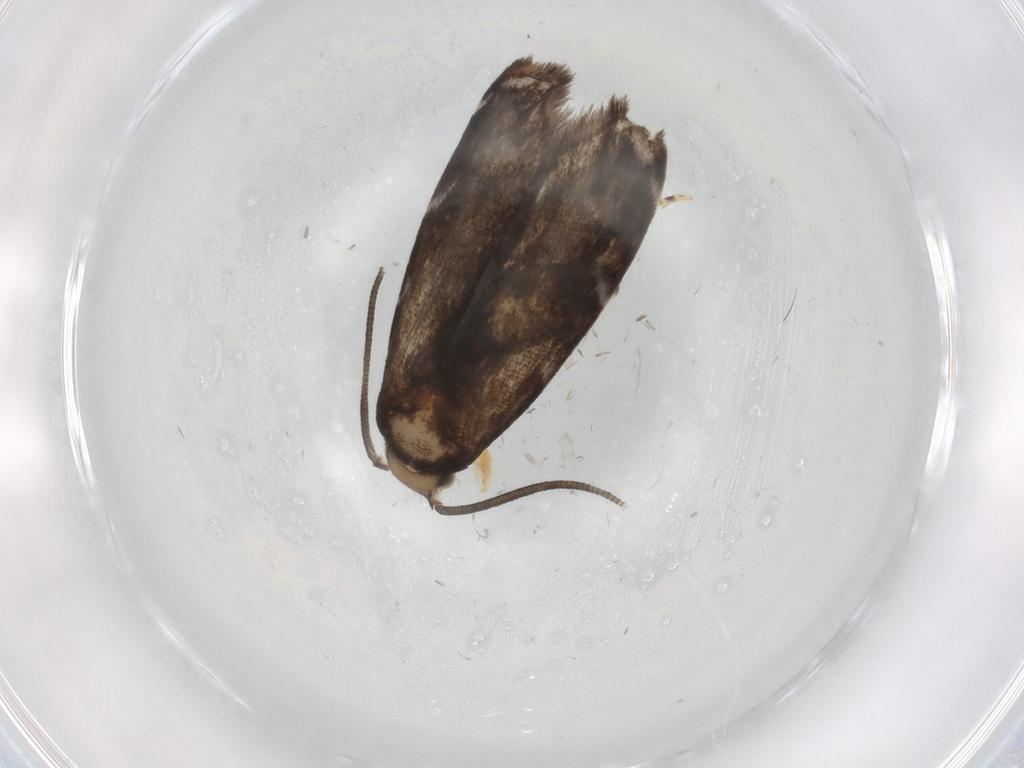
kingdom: Animalia
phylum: Arthropoda
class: Insecta
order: Lepidoptera
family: Dryadaulidae
